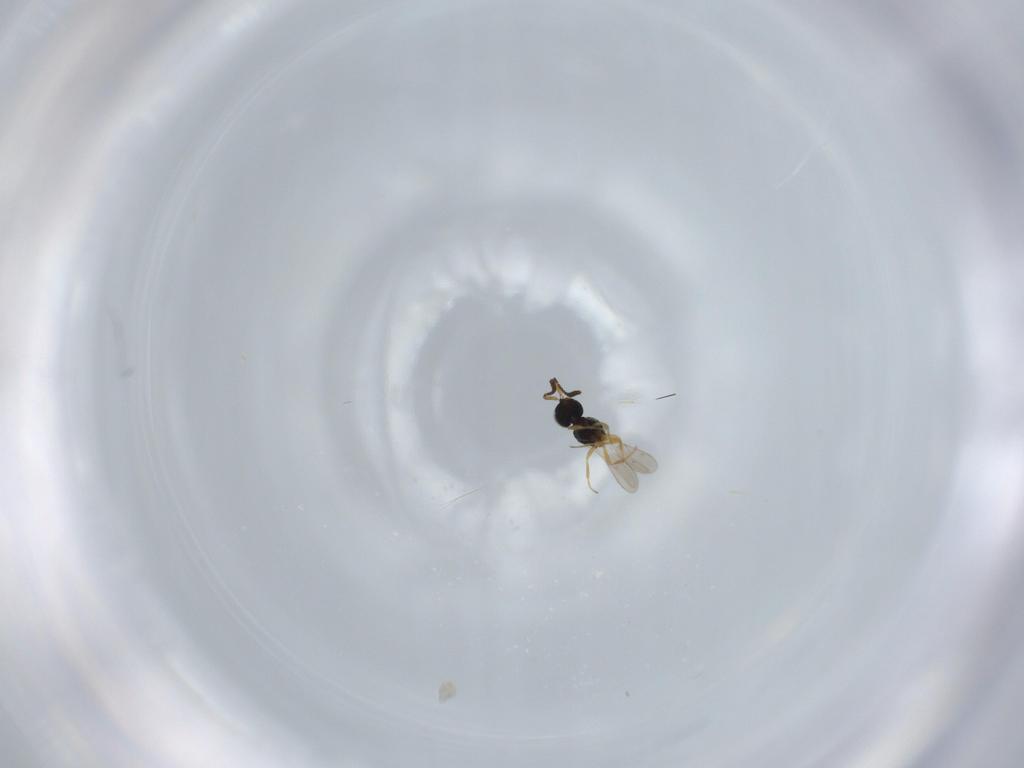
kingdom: Animalia
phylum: Arthropoda
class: Insecta
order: Hymenoptera
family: Scelionidae
